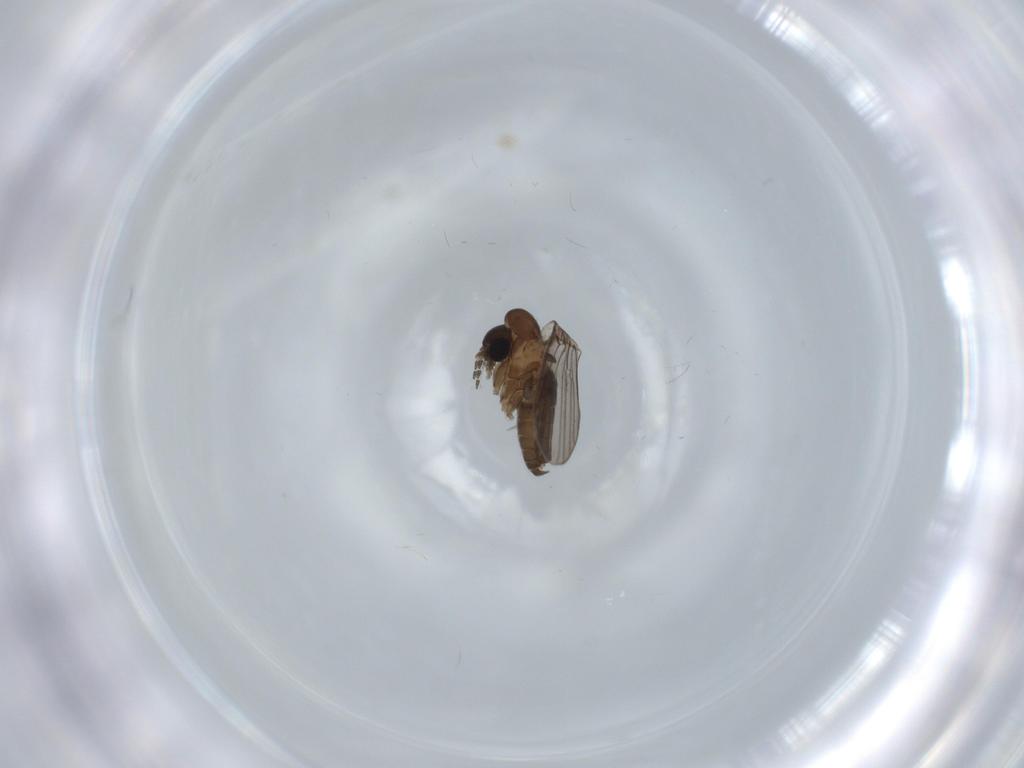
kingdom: Animalia
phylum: Arthropoda
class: Insecta
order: Diptera
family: Psychodidae
